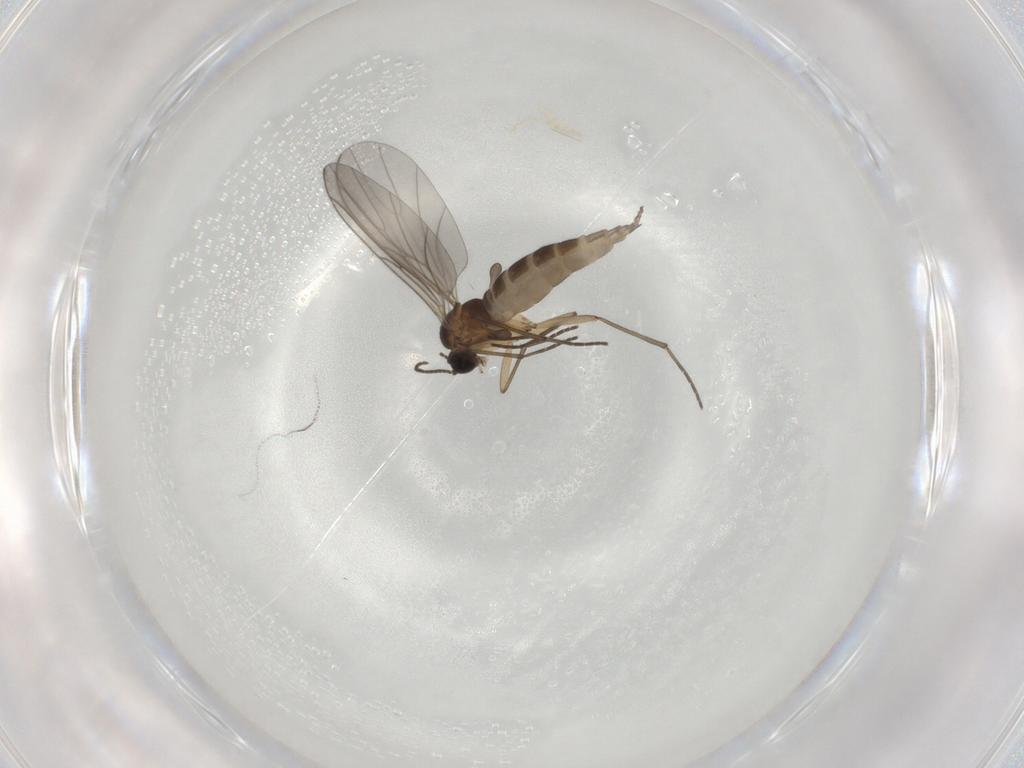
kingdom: Animalia
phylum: Arthropoda
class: Insecta
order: Diptera
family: Sciaridae
